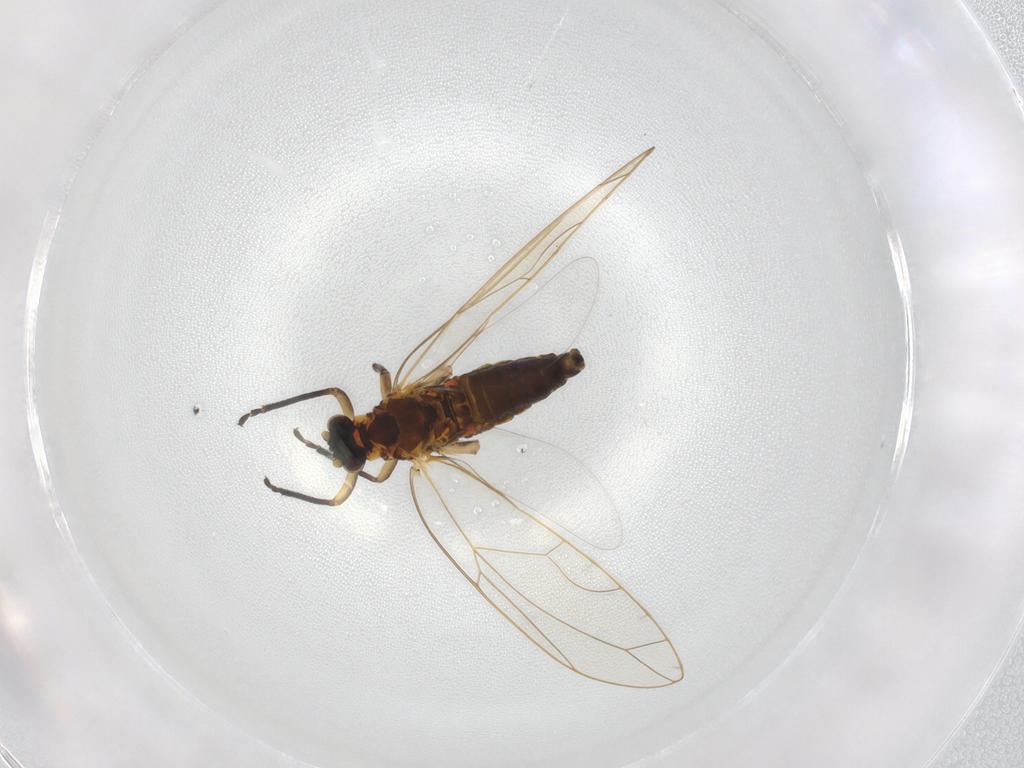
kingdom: Animalia
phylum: Arthropoda
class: Insecta
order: Hemiptera
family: Cicadellidae
